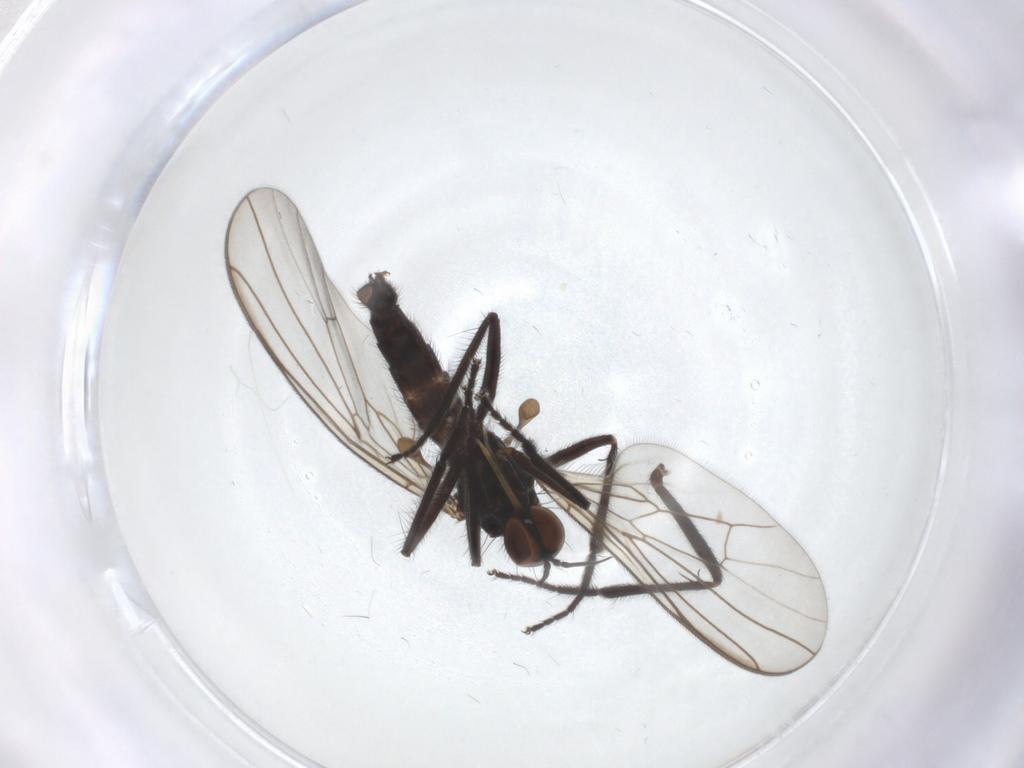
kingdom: Animalia
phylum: Arthropoda
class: Insecta
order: Diptera
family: Empididae
